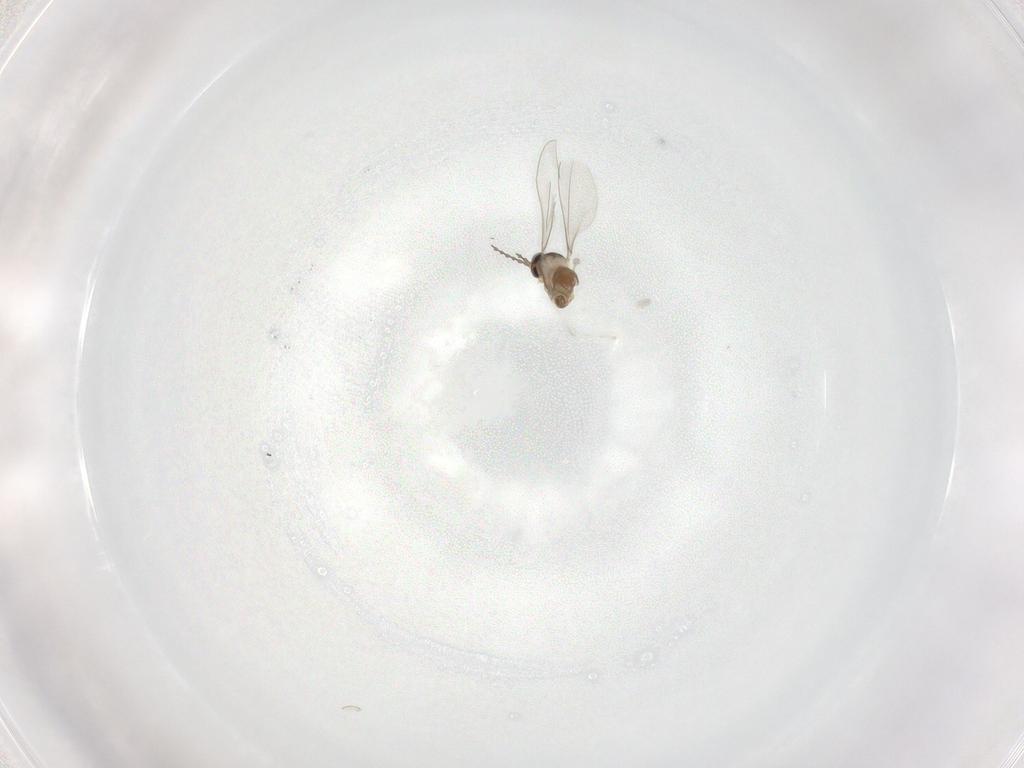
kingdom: Animalia
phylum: Arthropoda
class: Insecta
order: Diptera
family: Cecidomyiidae
